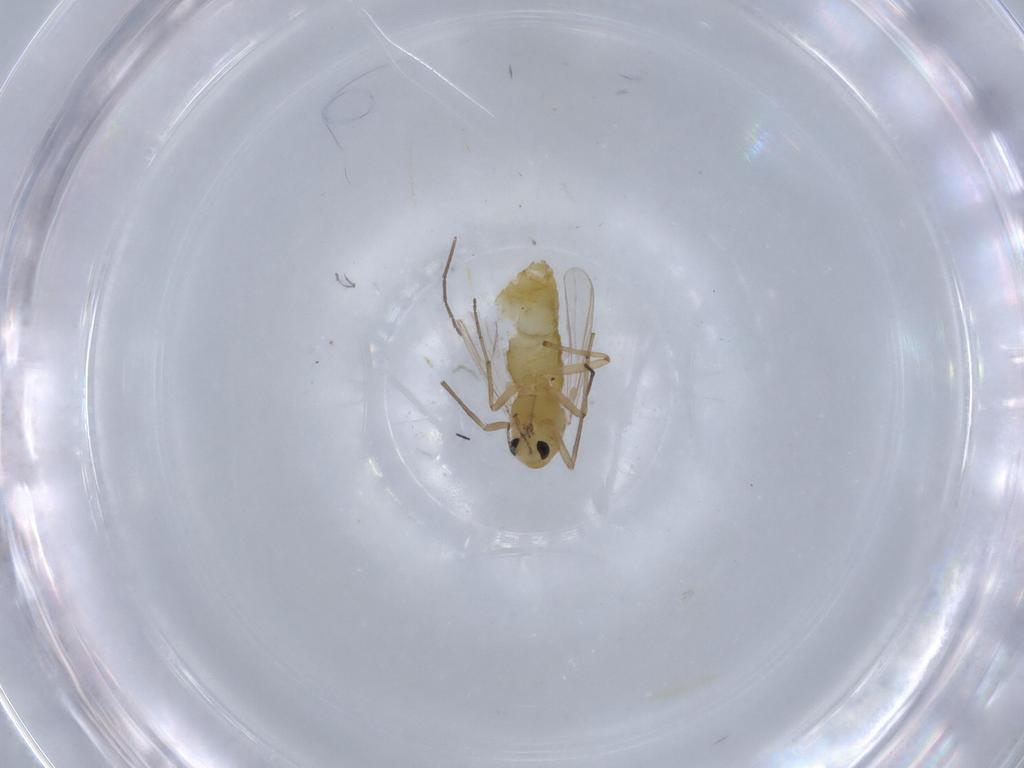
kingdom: Animalia
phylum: Arthropoda
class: Insecta
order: Diptera
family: Chironomidae
